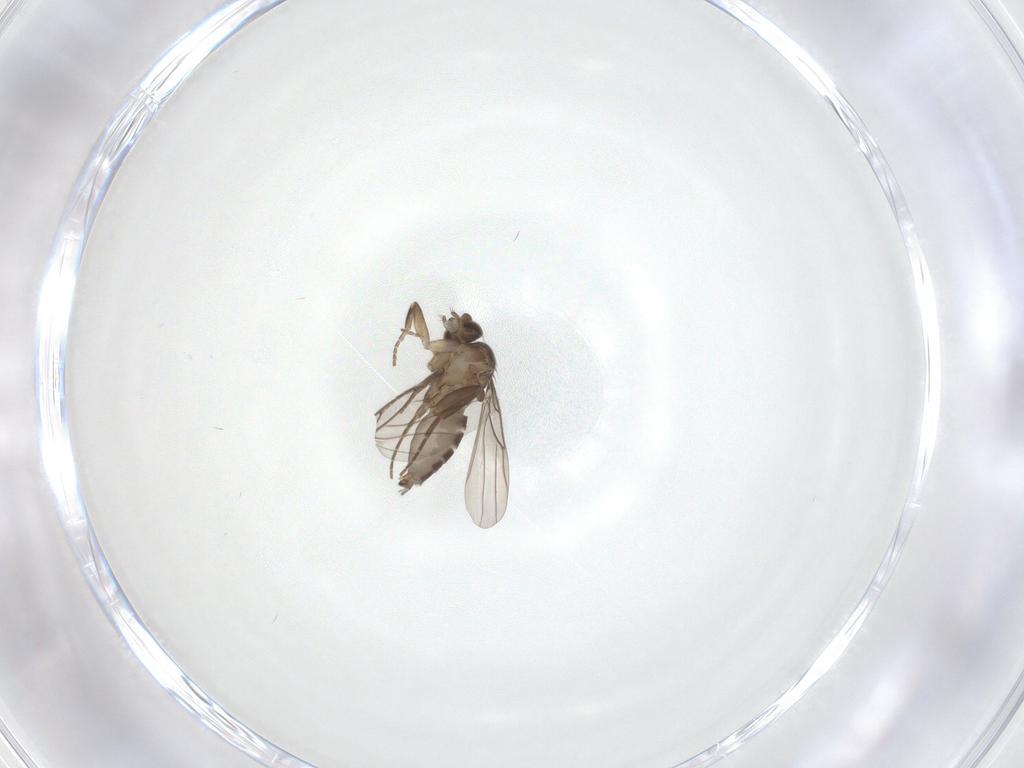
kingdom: Animalia
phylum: Arthropoda
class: Insecta
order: Diptera
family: Phoridae
